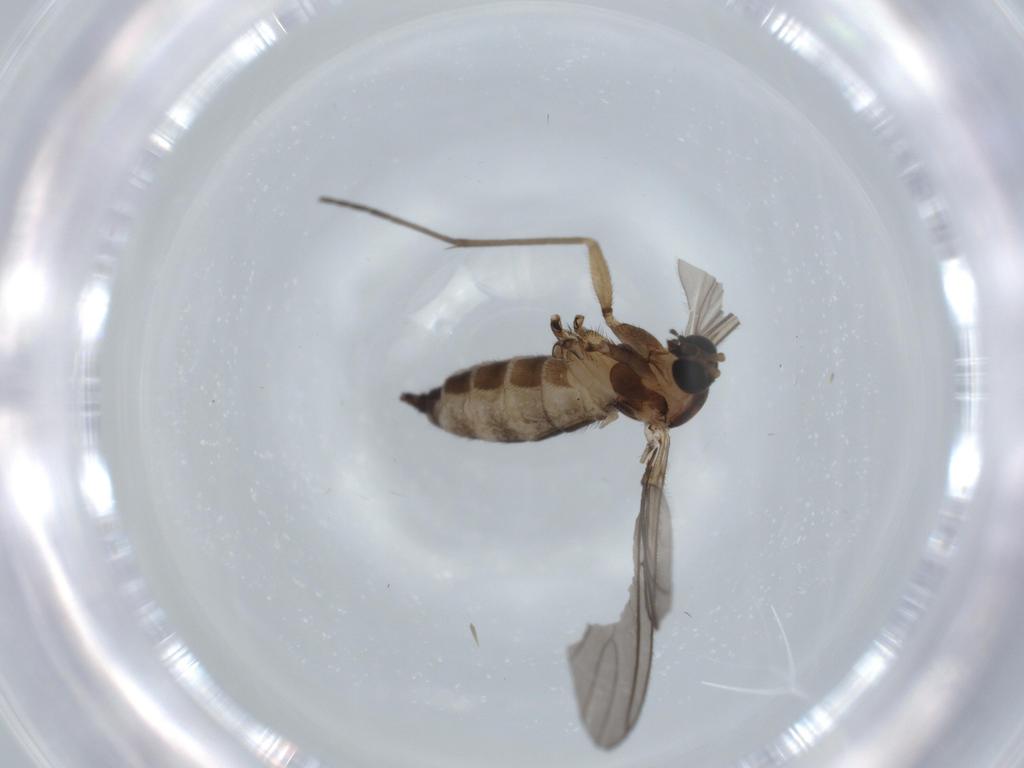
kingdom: Animalia
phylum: Arthropoda
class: Insecta
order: Diptera
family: Sciaridae
